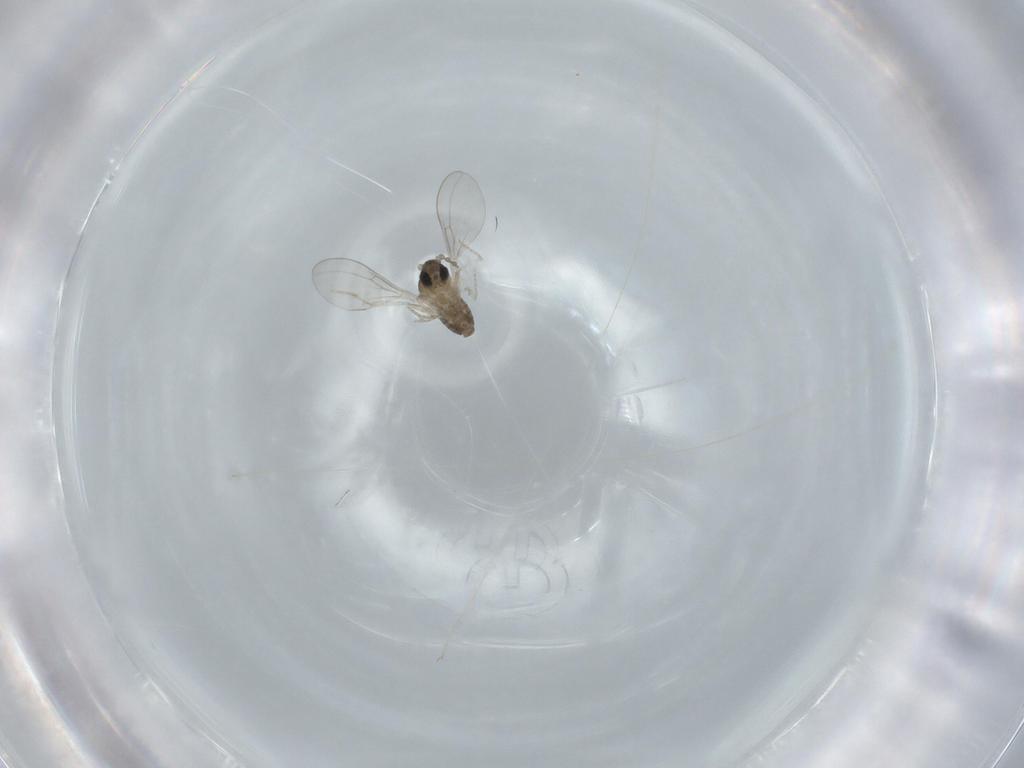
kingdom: Animalia
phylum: Arthropoda
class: Insecta
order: Diptera
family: Cecidomyiidae
